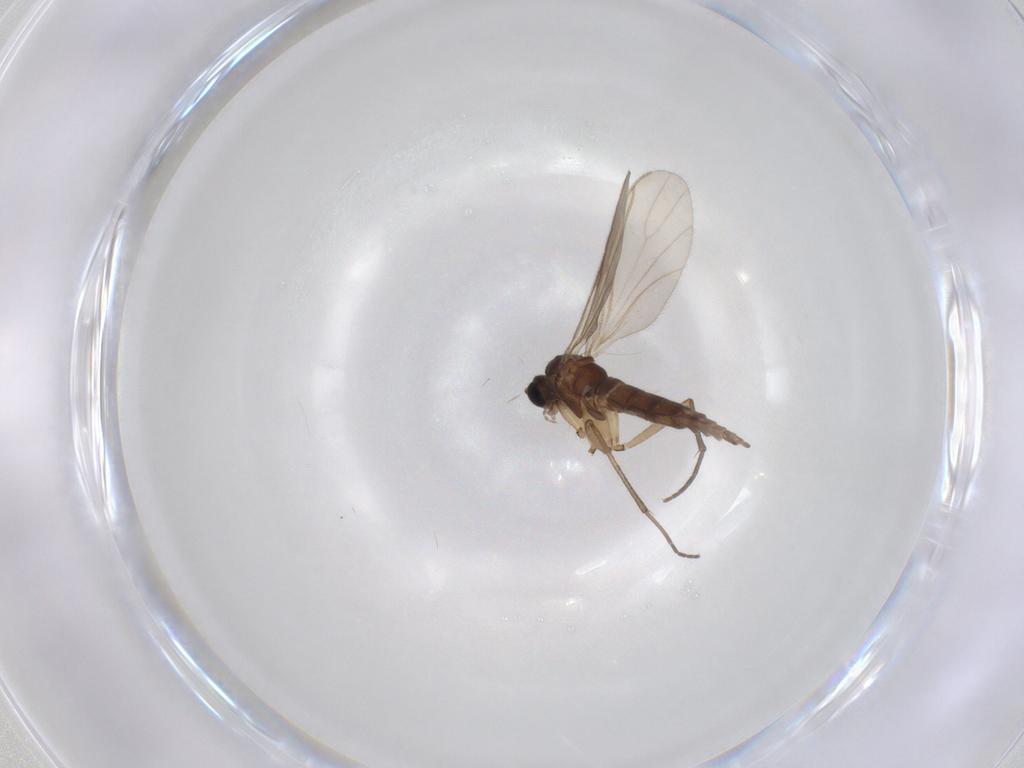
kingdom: Animalia
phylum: Arthropoda
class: Insecta
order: Diptera
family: Sciaridae
